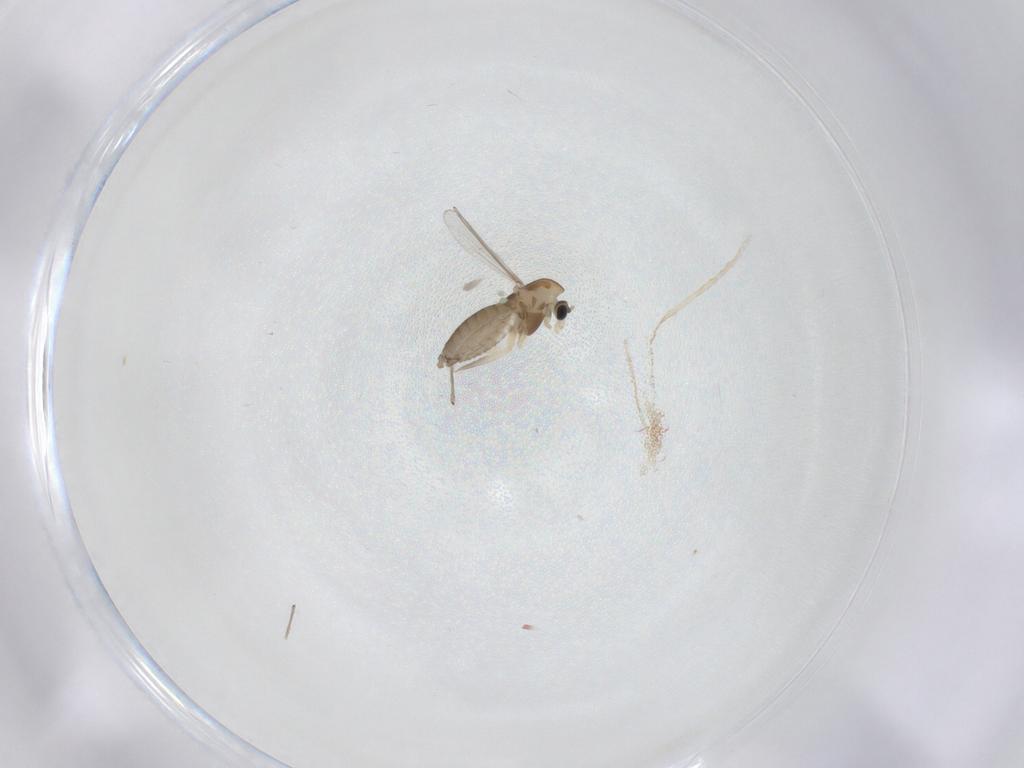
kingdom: Animalia
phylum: Arthropoda
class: Insecta
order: Diptera
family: Chironomidae
